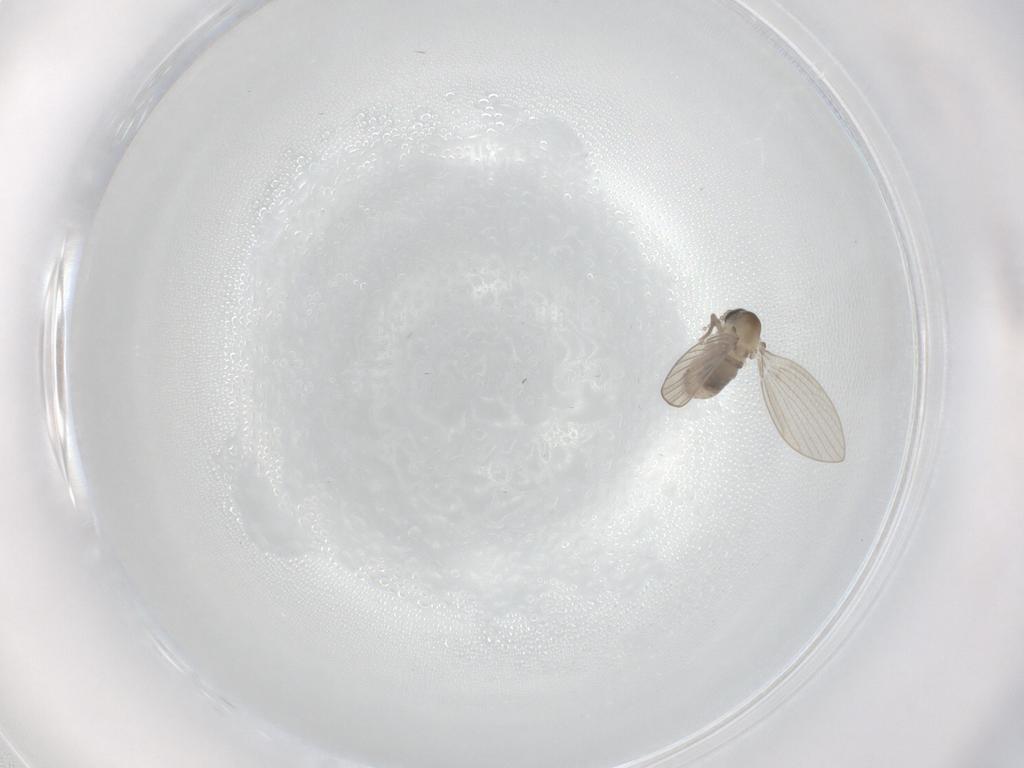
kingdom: Animalia
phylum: Arthropoda
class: Insecta
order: Diptera
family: Psychodidae
